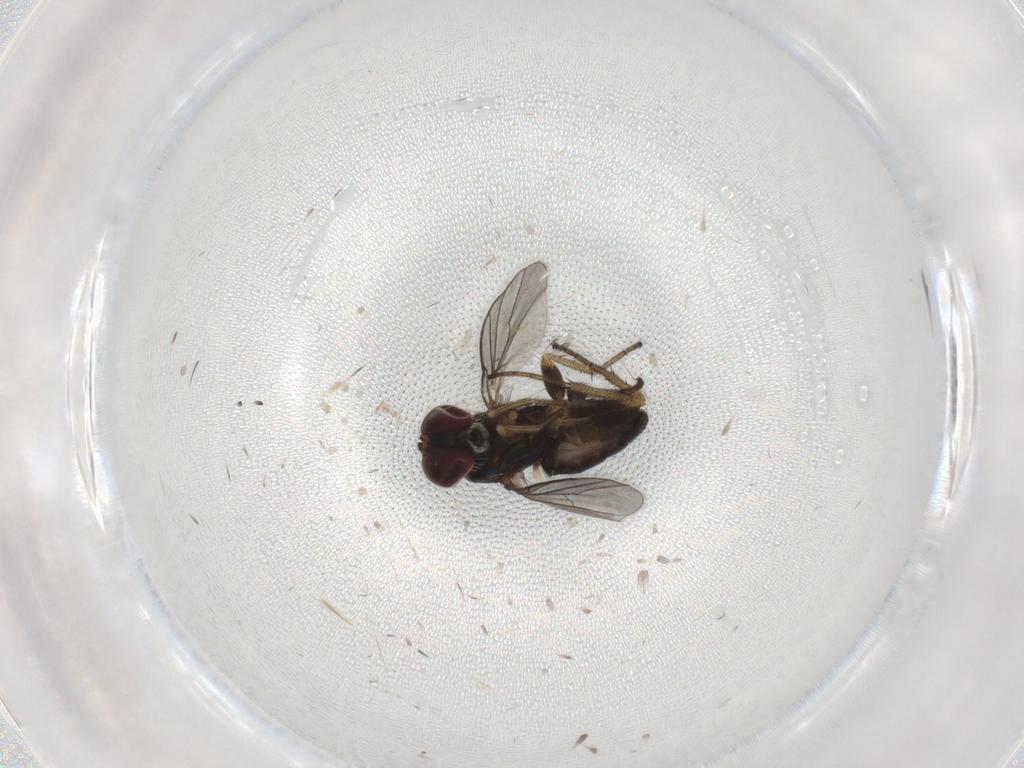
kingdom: Animalia
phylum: Arthropoda
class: Insecta
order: Diptera
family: Dolichopodidae
